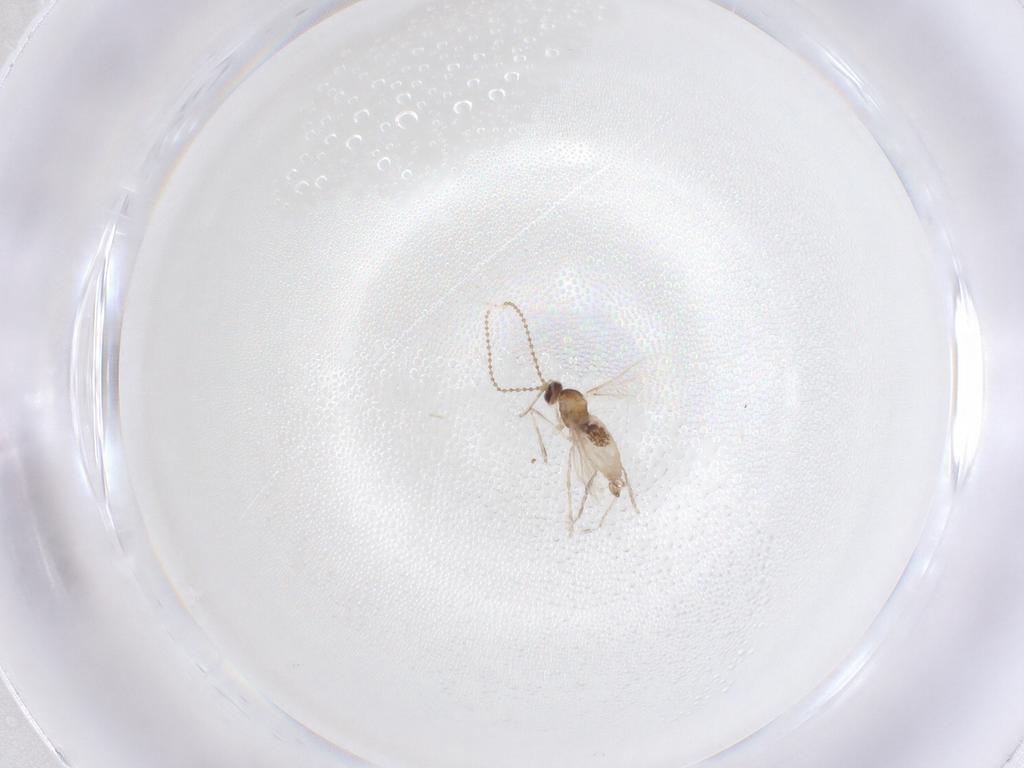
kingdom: Animalia
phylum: Arthropoda
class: Insecta
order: Diptera
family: Cecidomyiidae
